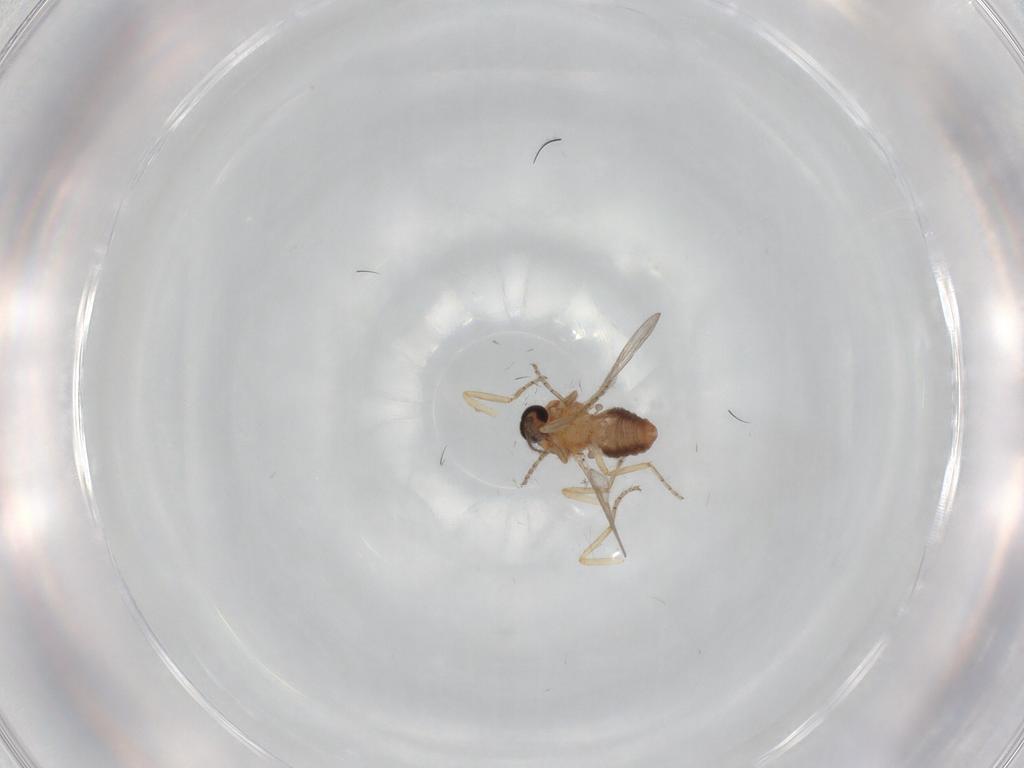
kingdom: Animalia
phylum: Arthropoda
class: Insecta
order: Diptera
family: Ceratopogonidae
